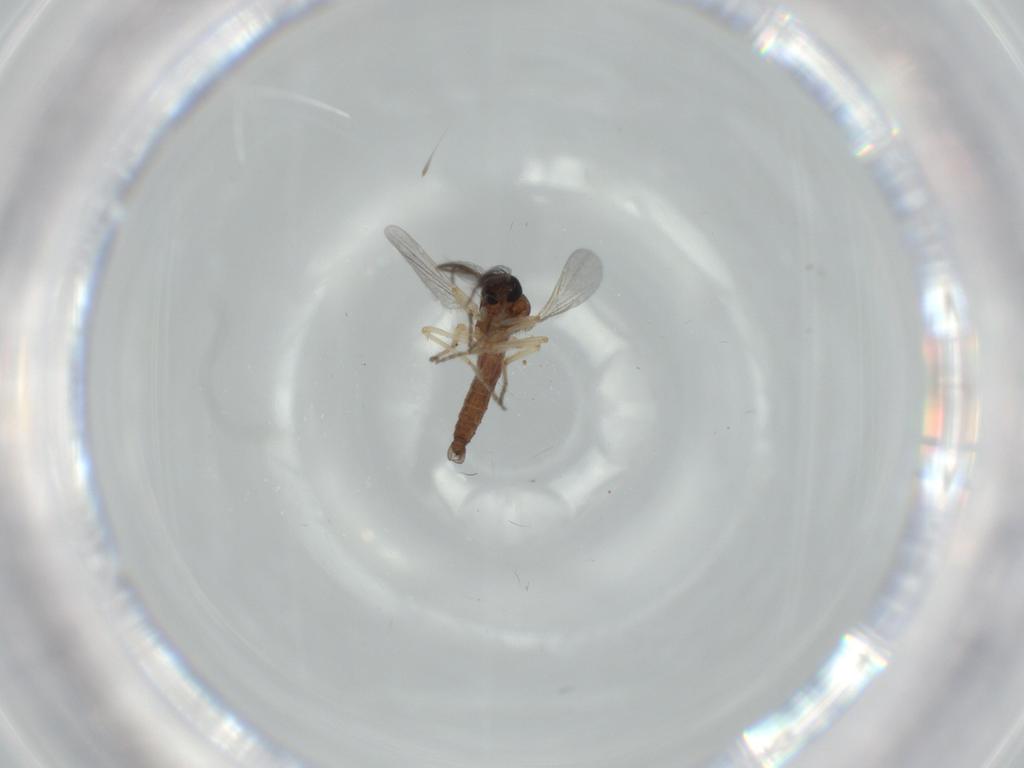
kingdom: Animalia
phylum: Arthropoda
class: Insecta
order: Diptera
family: Ceratopogonidae
